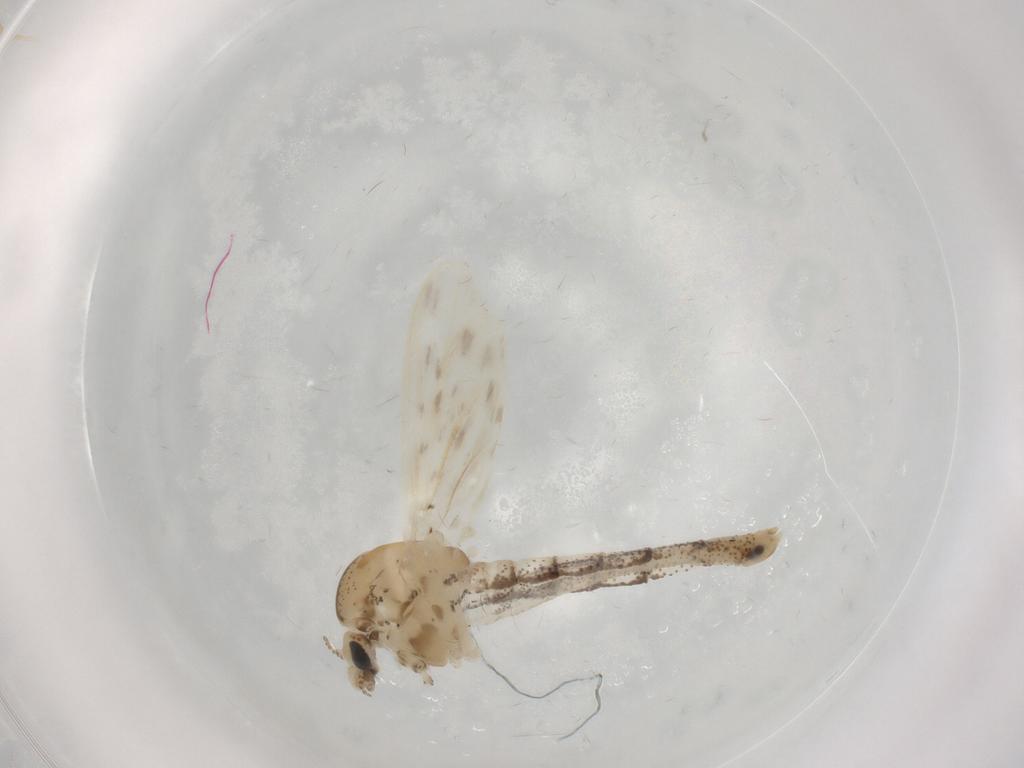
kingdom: Animalia
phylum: Arthropoda
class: Insecta
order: Diptera
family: Chaoboridae
